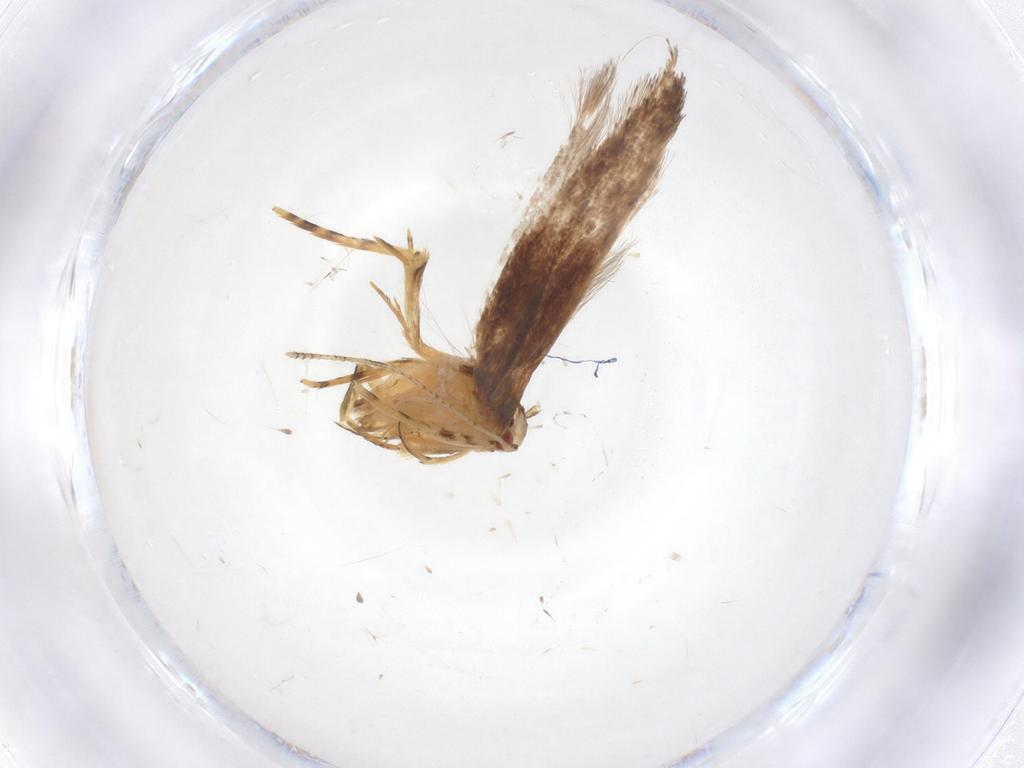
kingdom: Animalia
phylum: Arthropoda
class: Insecta
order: Lepidoptera
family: Cosmopterigidae
